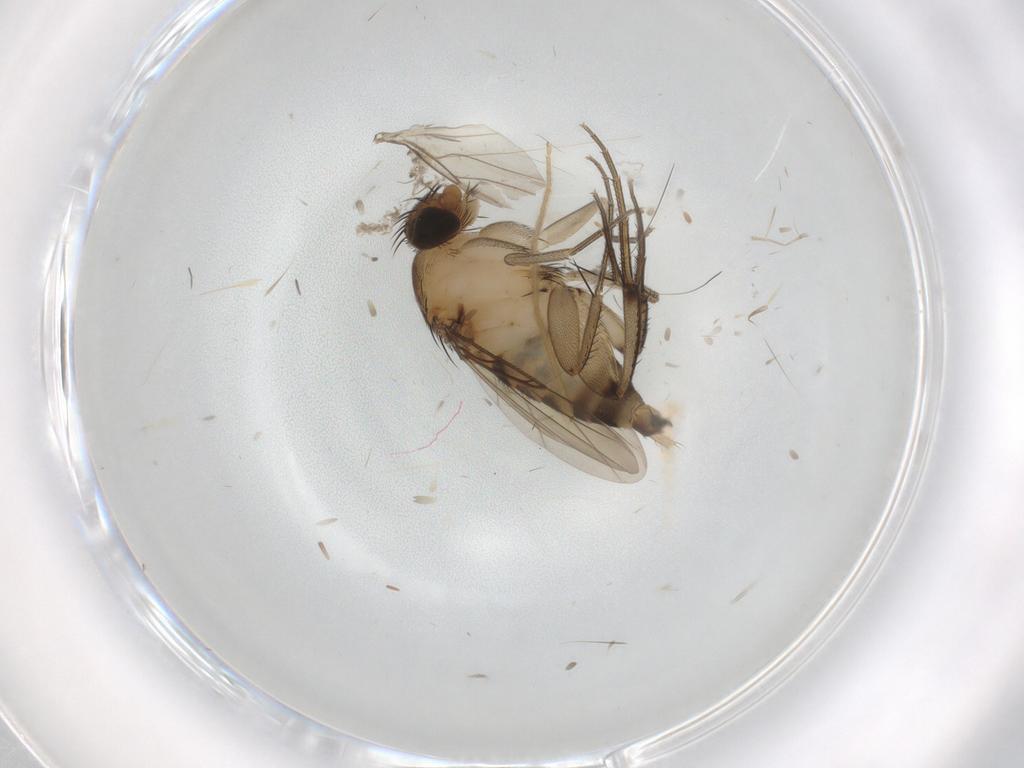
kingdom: Animalia
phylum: Arthropoda
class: Insecta
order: Diptera
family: Phoridae
